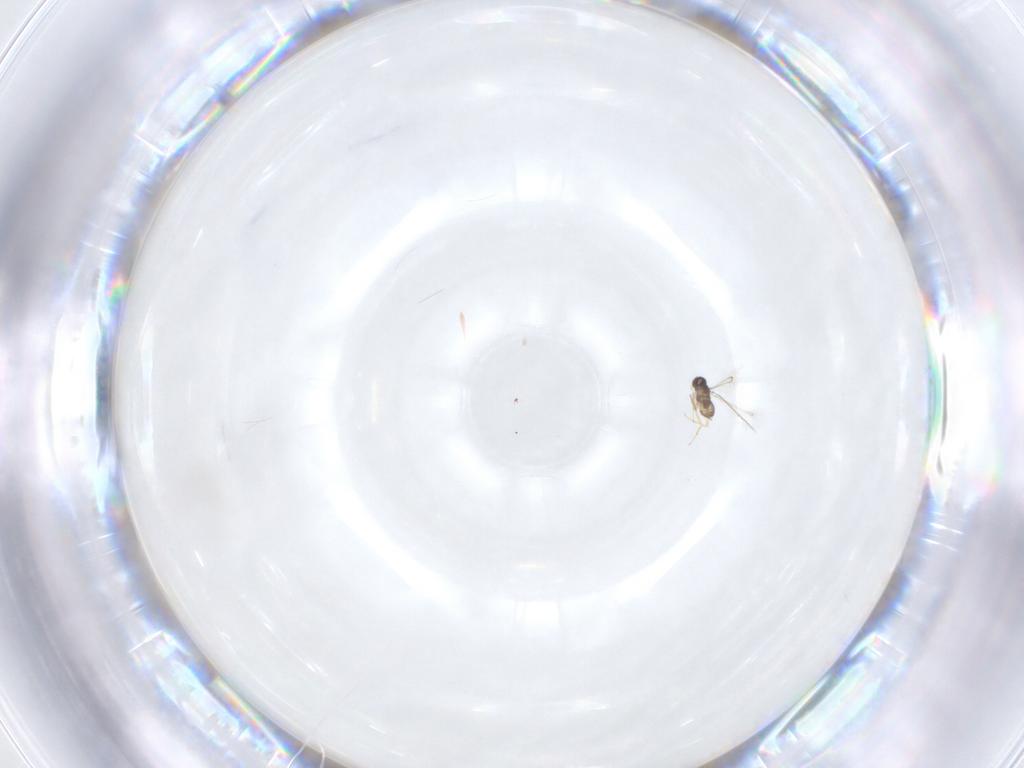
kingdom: Animalia
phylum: Arthropoda
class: Insecta
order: Hymenoptera
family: Mymaridae
